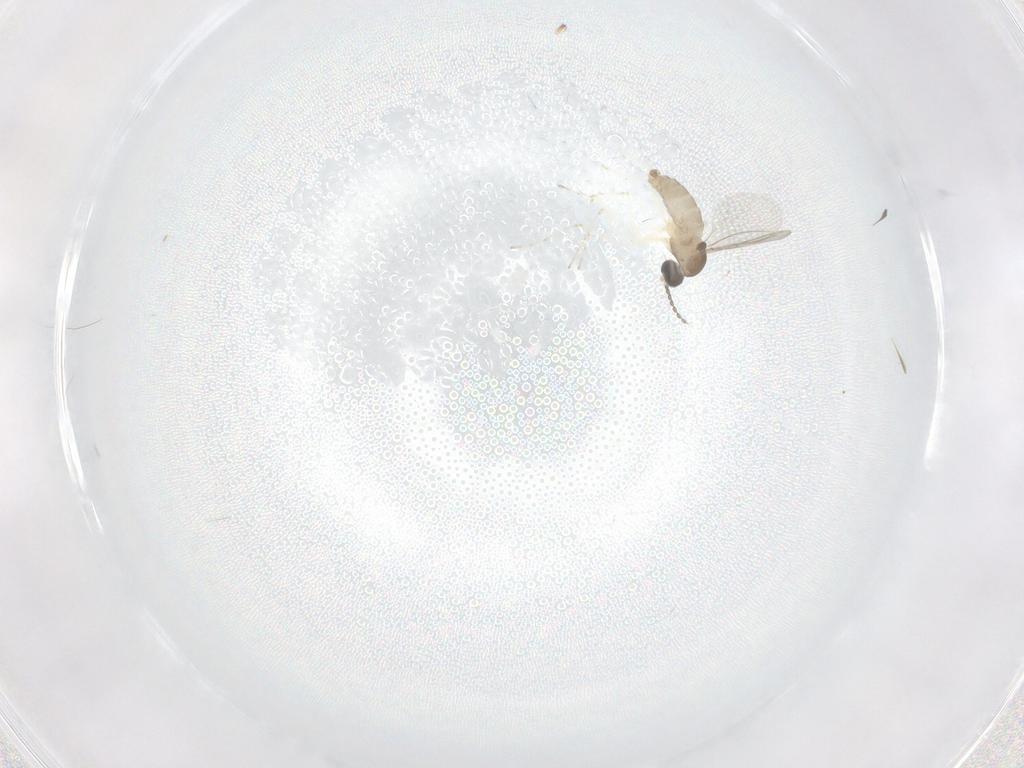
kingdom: Animalia
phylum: Arthropoda
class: Insecta
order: Diptera
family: Cecidomyiidae
